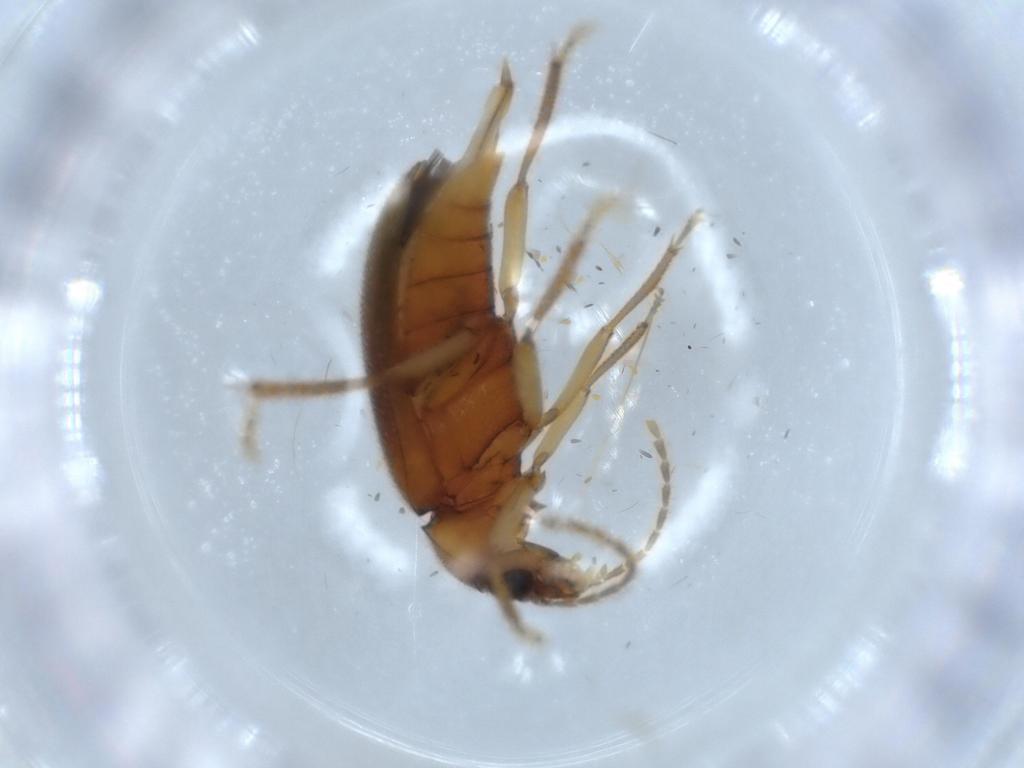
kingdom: Animalia
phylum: Arthropoda
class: Insecta
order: Coleoptera
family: Ptilodactylidae
